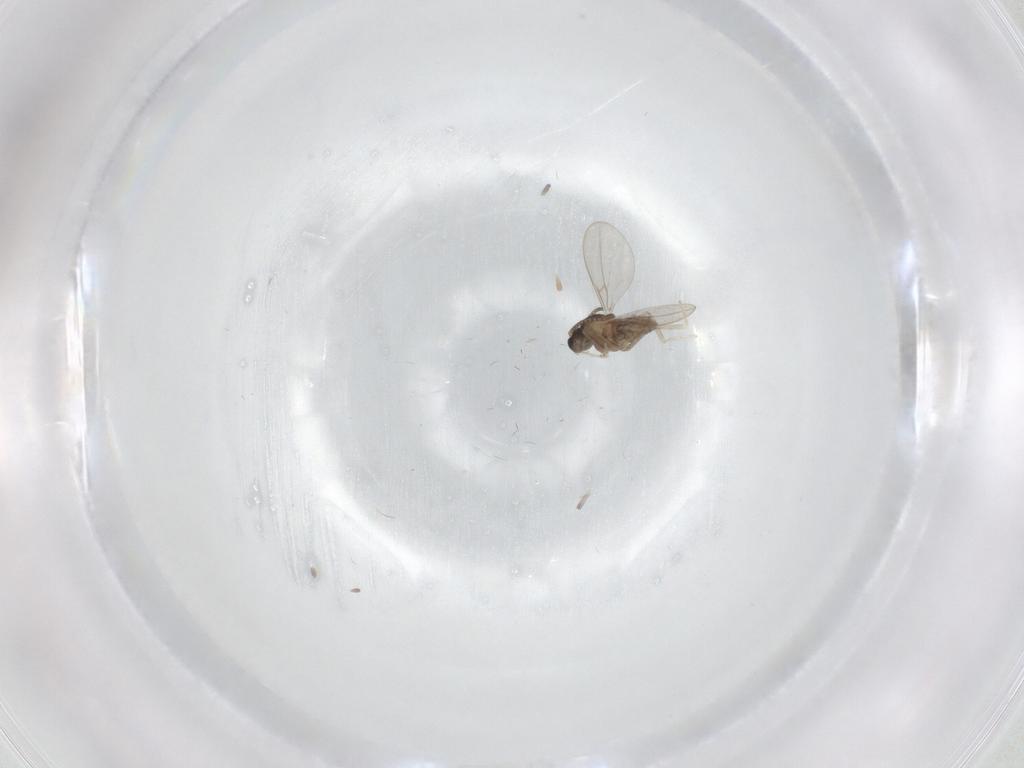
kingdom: Animalia
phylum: Arthropoda
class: Insecta
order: Diptera
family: Cecidomyiidae
